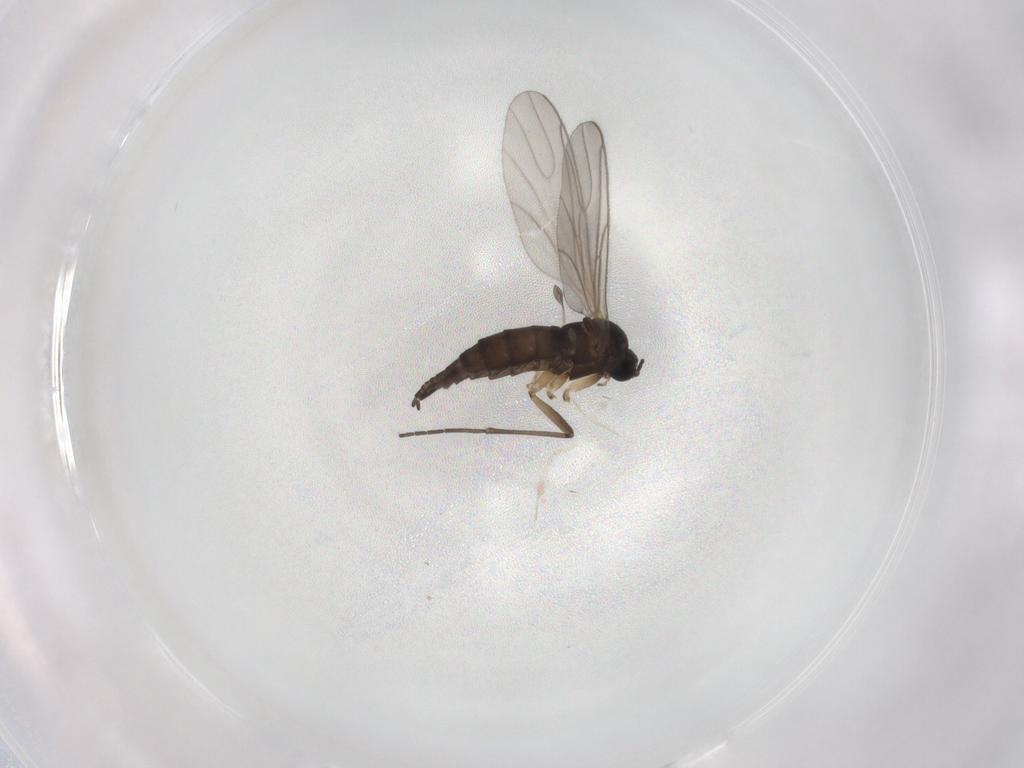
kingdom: Animalia
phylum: Arthropoda
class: Insecta
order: Diptera
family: Sciaridae
